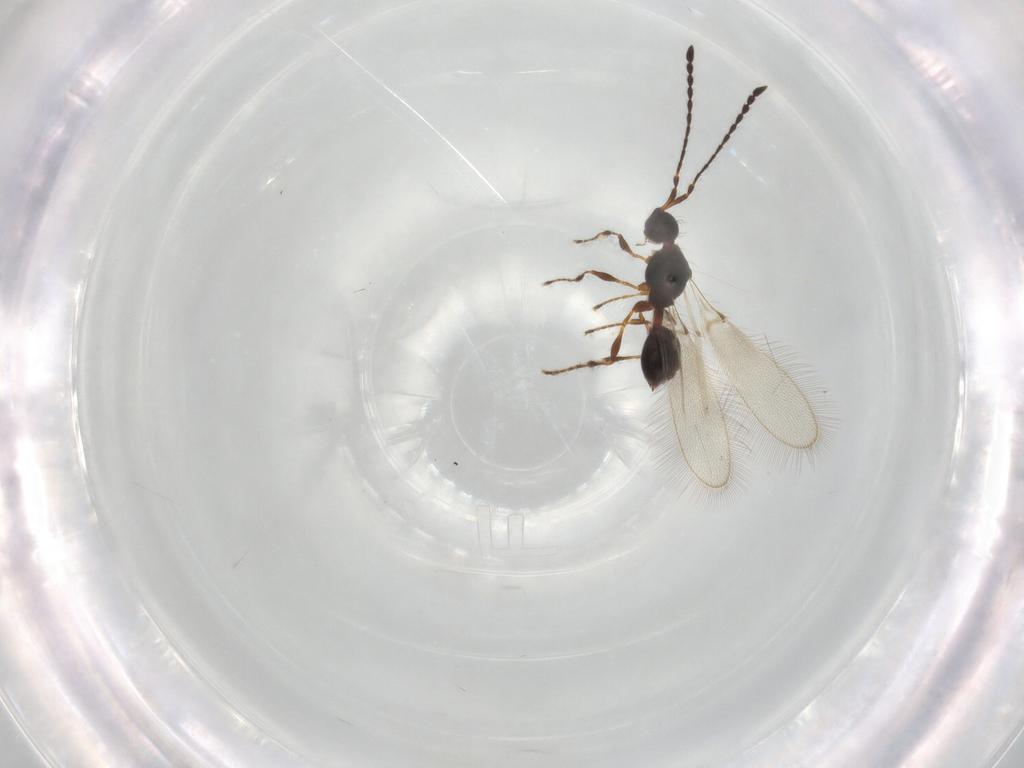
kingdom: Animalia
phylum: Arthropoda
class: Insecta
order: Hymenoptera
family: Diapriidae
